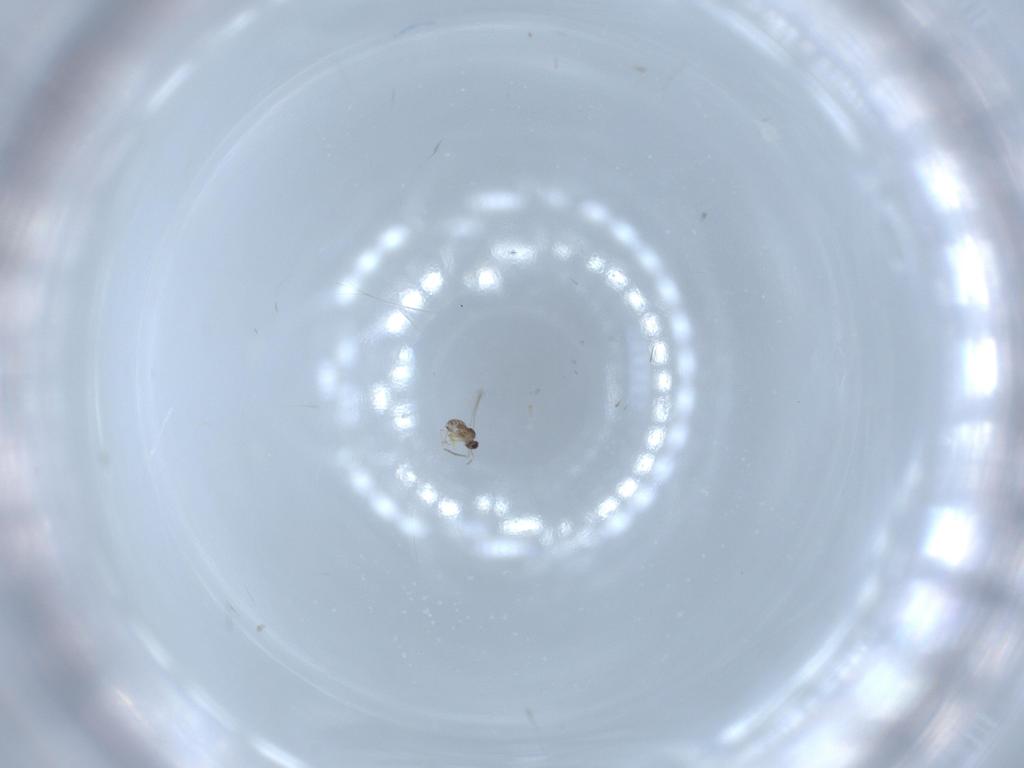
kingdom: Animalia
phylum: Arthropoda
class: Insecta
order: Hymenoptera
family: Mymaridae
